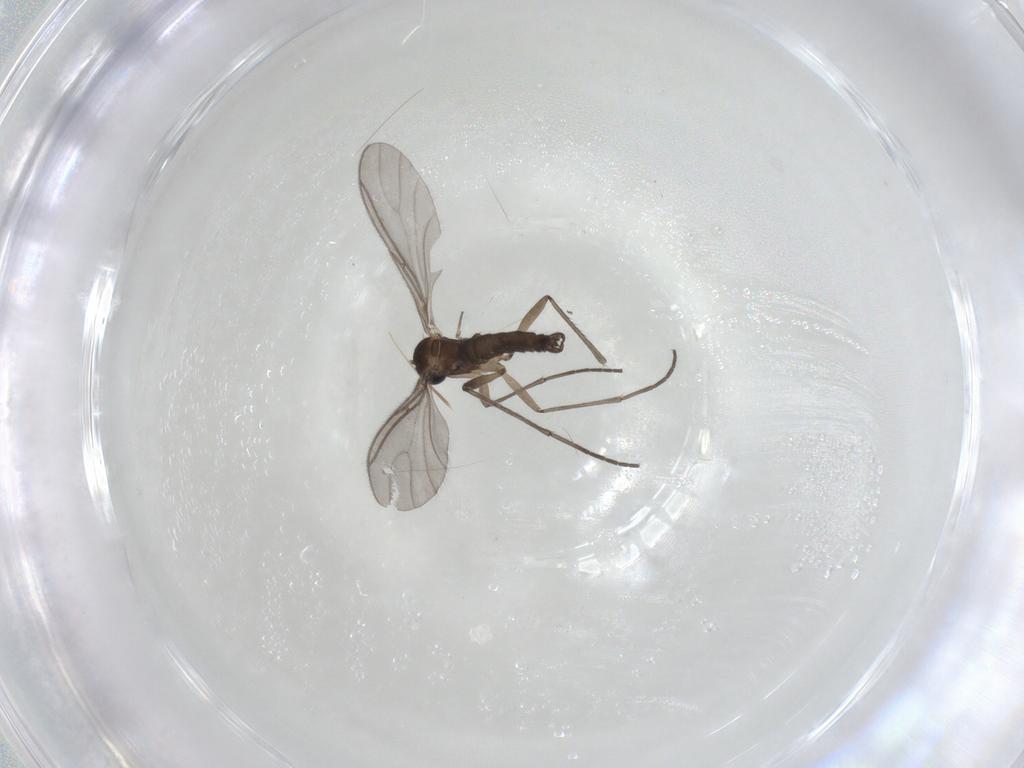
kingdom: Animalia
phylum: Arthropoda
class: Insecta
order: Diptera
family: Sciaridae
